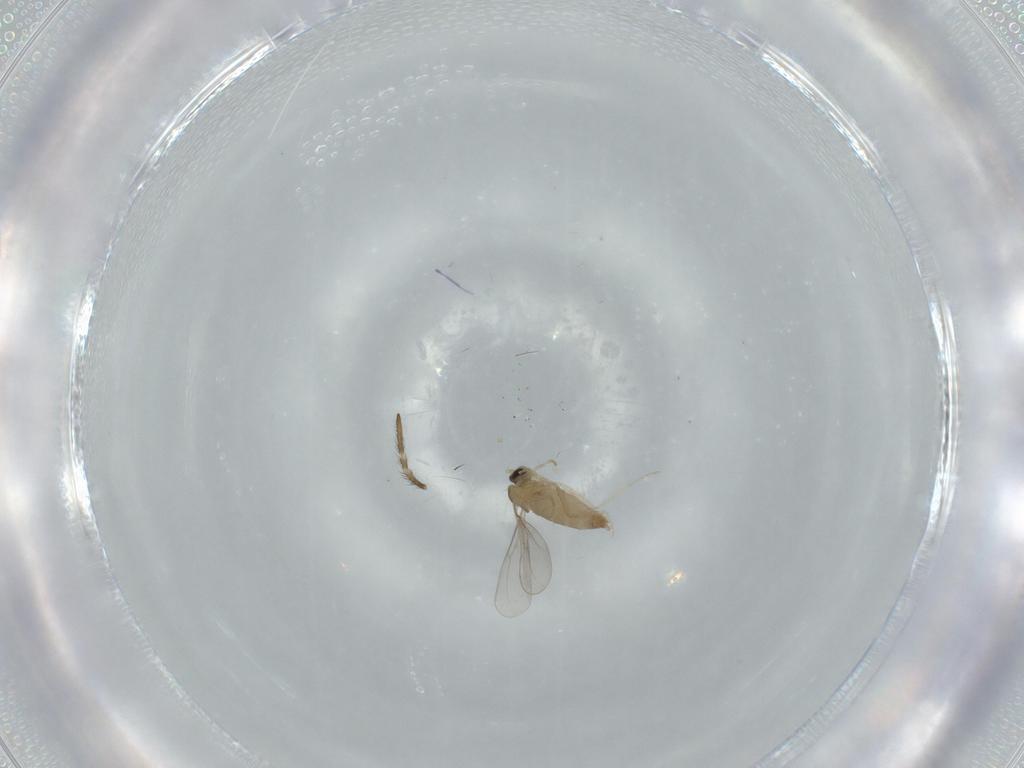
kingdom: Animalia
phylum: Arthropoda
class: Insecta
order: Diptera
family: Cecidomyiidae
